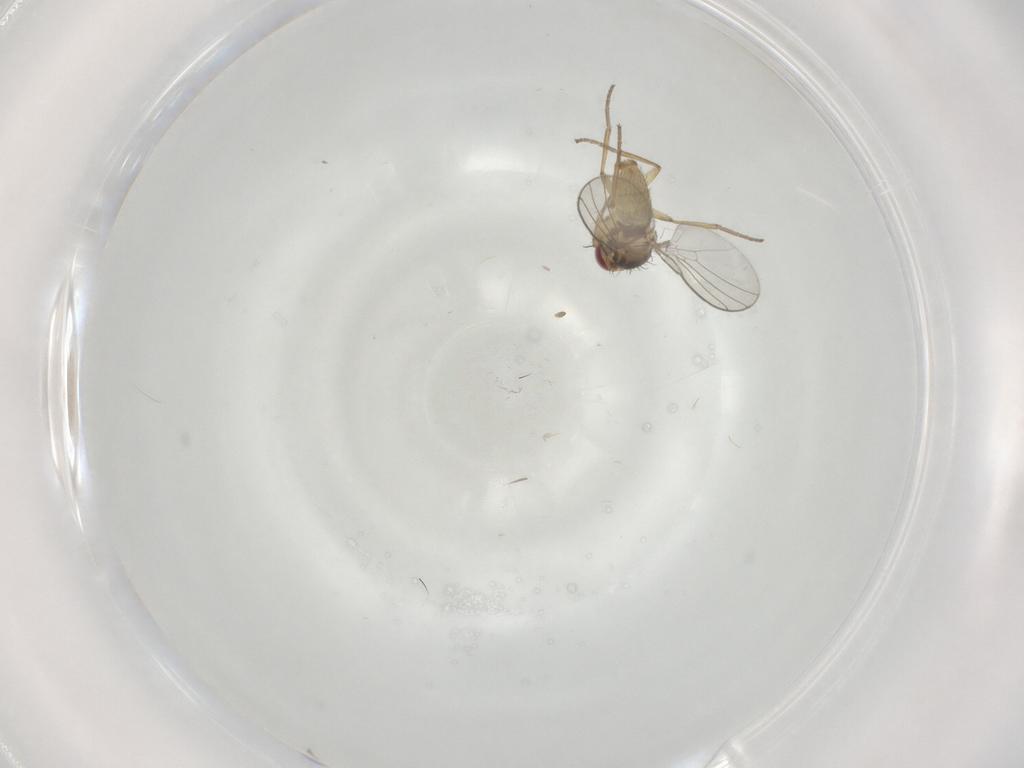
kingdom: Animalia
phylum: Arthropoda
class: Insecta
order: Diptera
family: Agromyzidae
